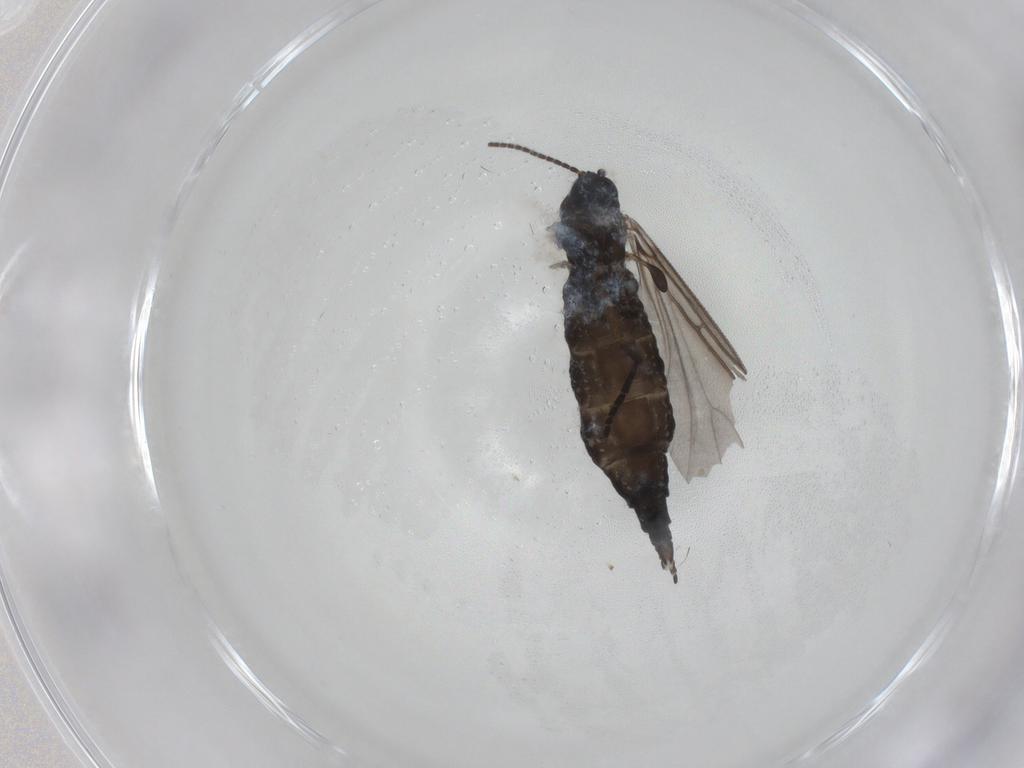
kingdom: Animalia
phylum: Arthropoda
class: Insecta
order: Diptera
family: Sciaridae
